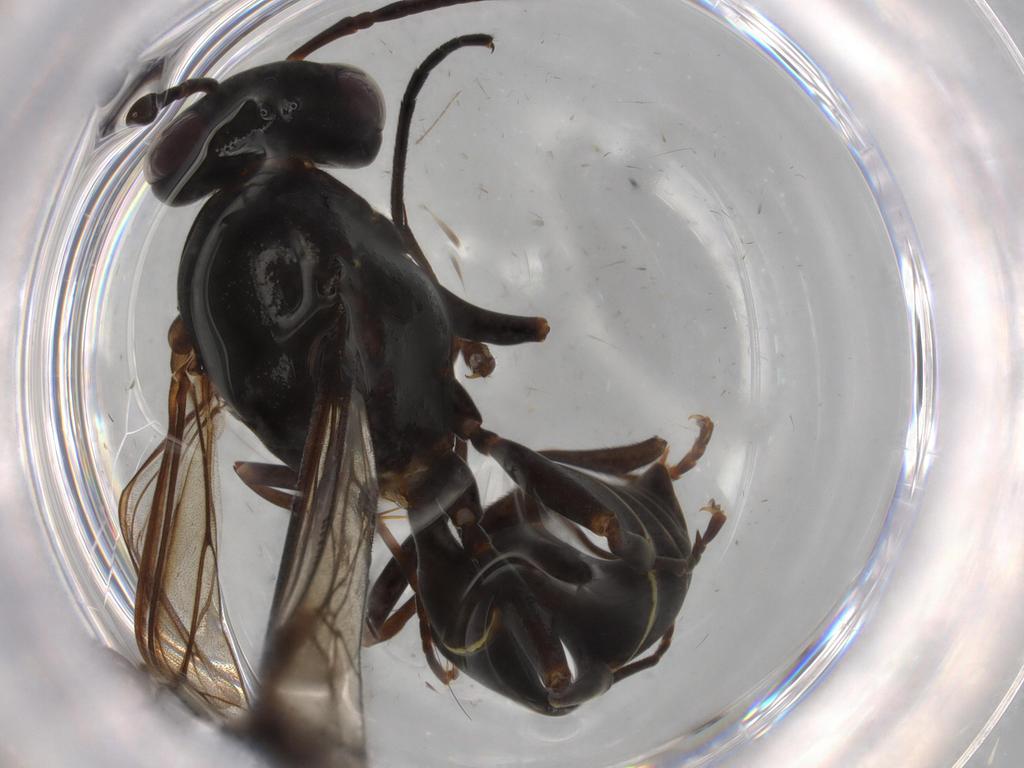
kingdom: Animalia
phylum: Arthropoda
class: Insecta
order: Hymenoptera
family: Vespidae
